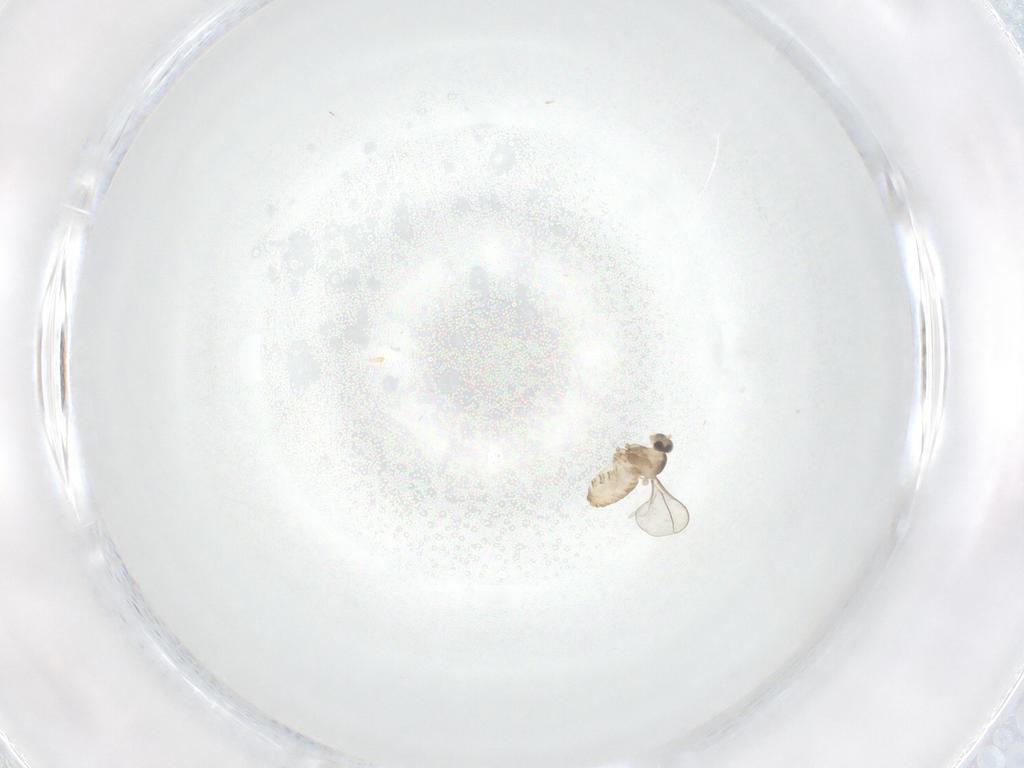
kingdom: Animalia
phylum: Arthropoda
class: Insecta
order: Diptera
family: Cecidomyiidae
